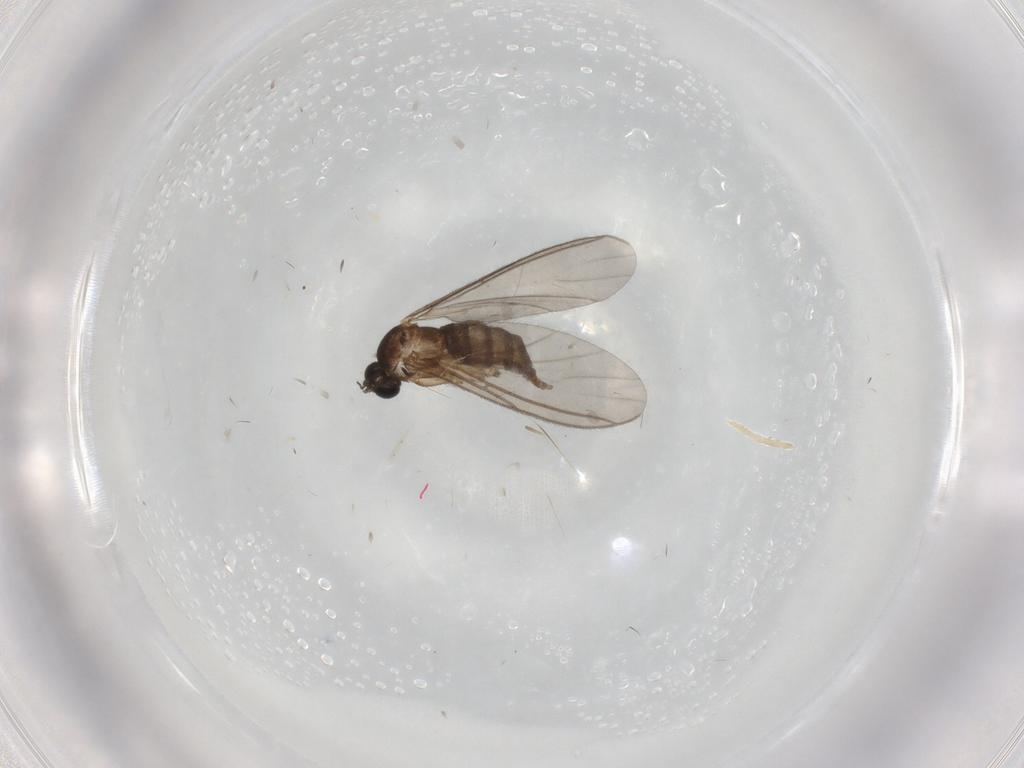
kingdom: Animalia
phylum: Arthropoda
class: Insecta
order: Diptera
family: Sciaridae
